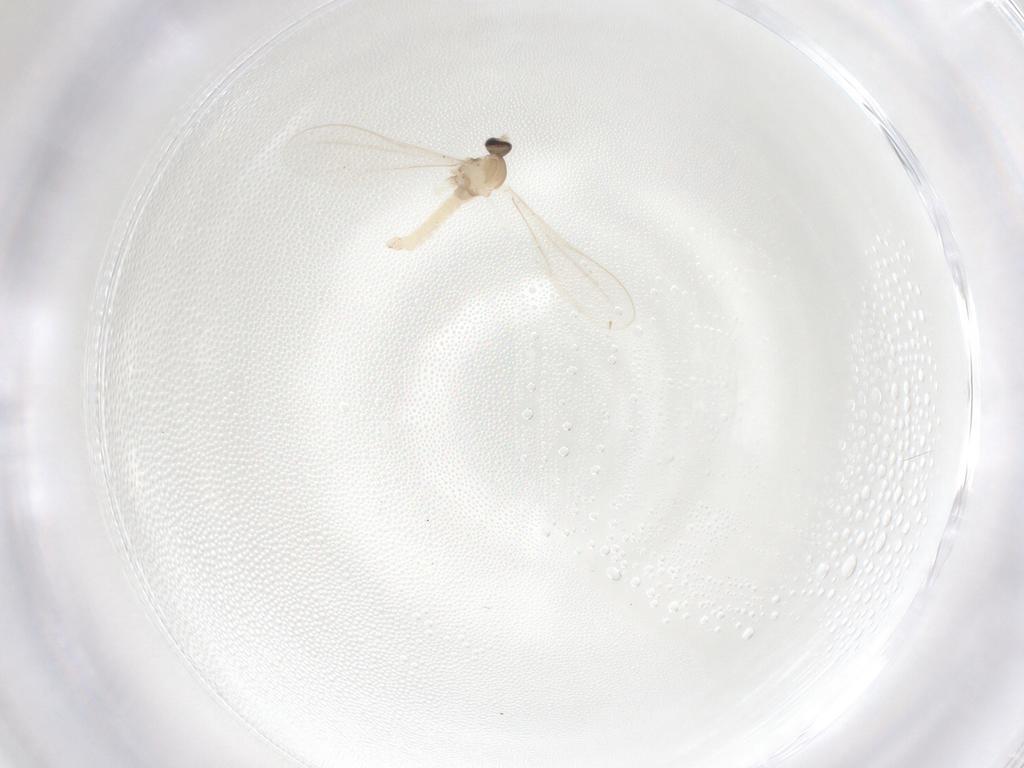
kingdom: Animalia
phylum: Arthropoda
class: Insecta
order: Diptera
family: Cecidomyiidae
